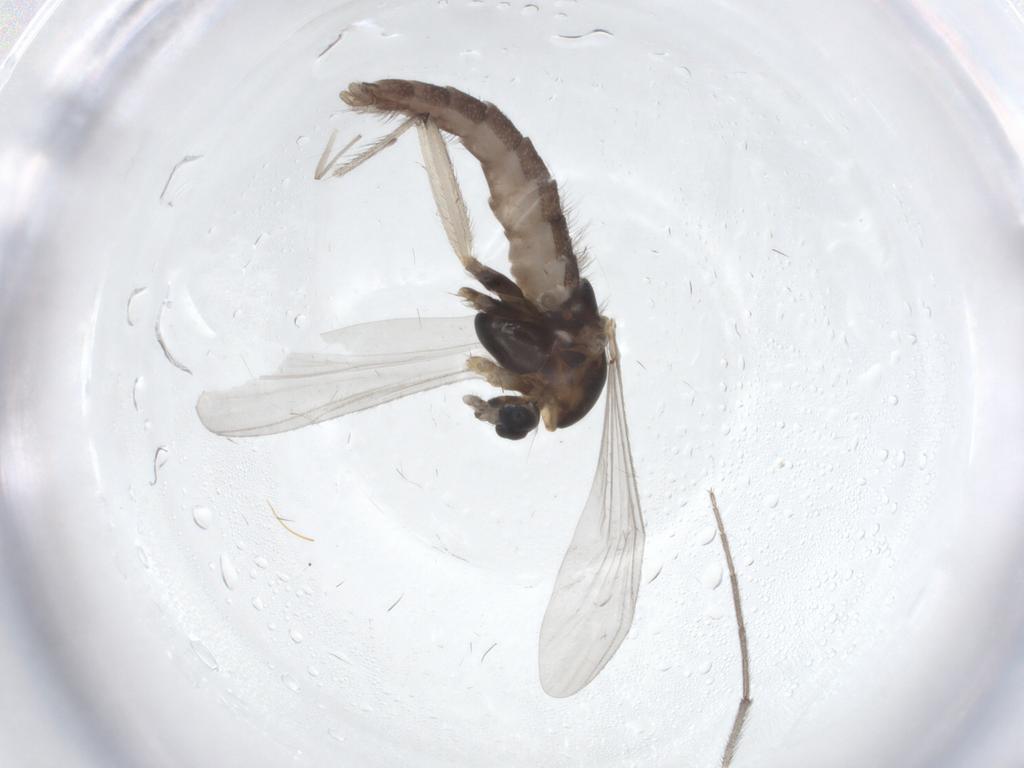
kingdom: Animalia
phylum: Arthropoda
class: Insecta
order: Diptera
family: Chironomidae
